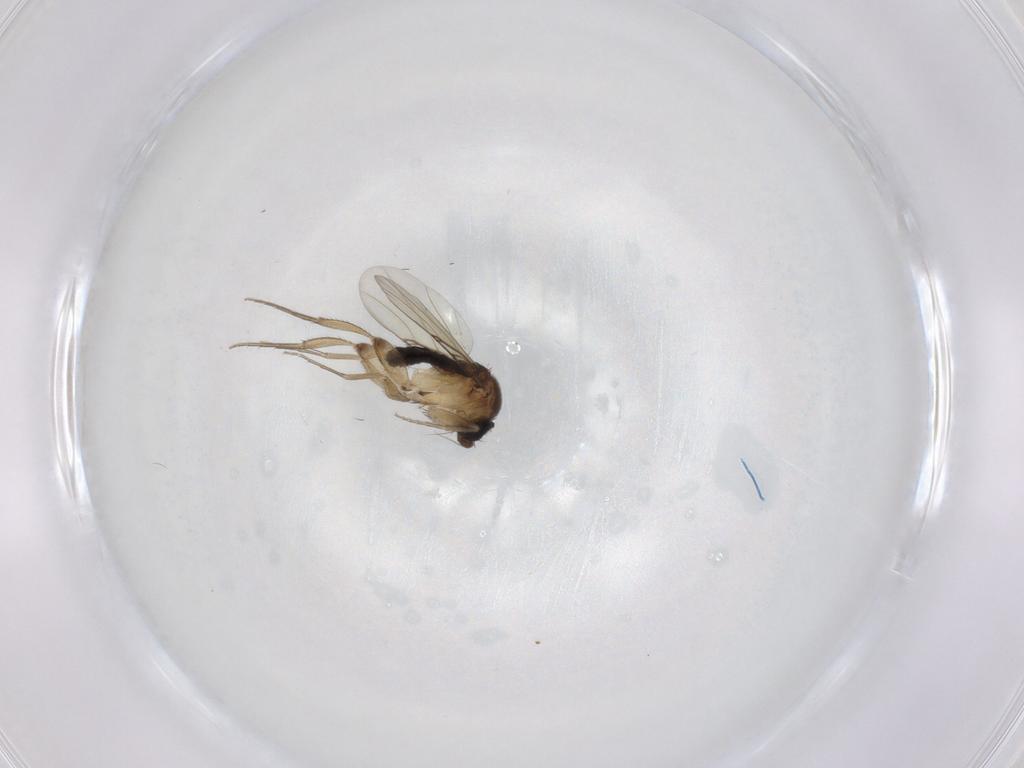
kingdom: Animalia
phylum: Arthropoda
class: Insecta
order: Diptera
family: Phoridae
